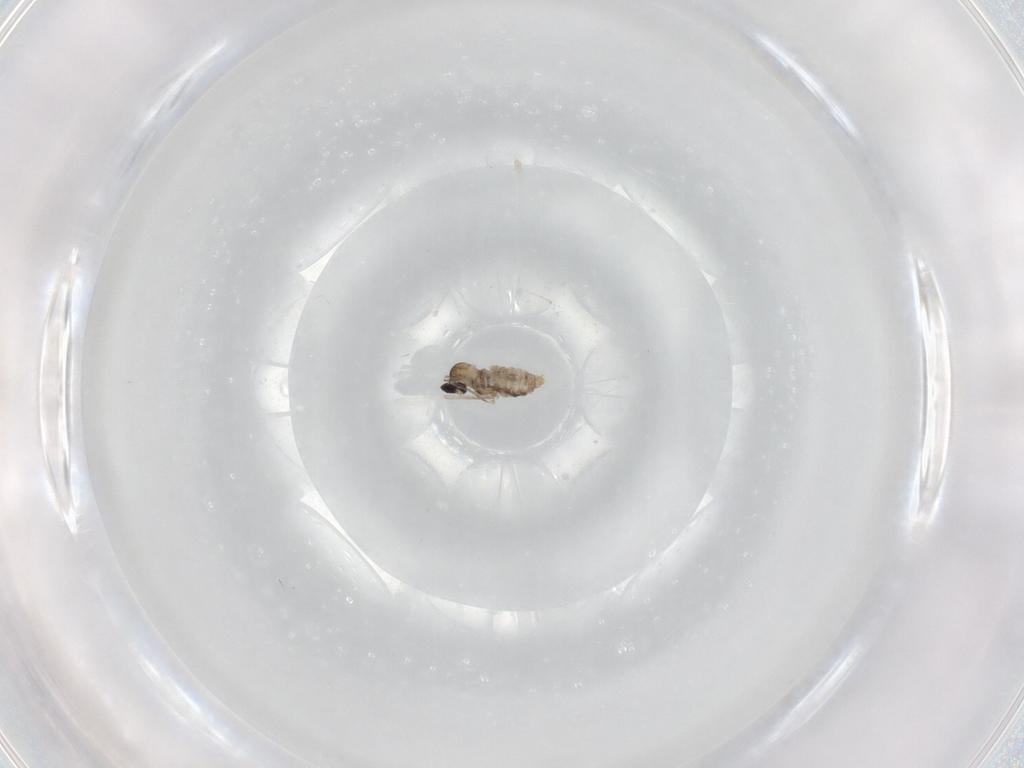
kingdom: Animalia
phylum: Arthropoda
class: Insecta
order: Diptera
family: Cecidomyiidae
